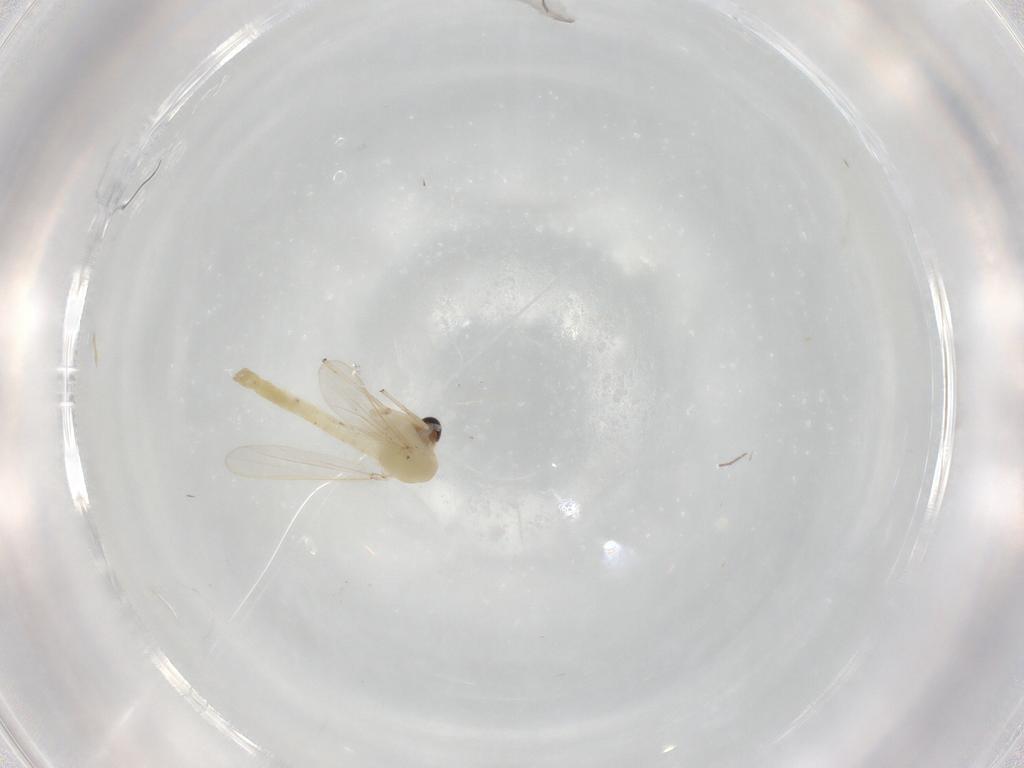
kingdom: Animalia
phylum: Arthropoda
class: Insecta
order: Diptera
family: Chironomidae
